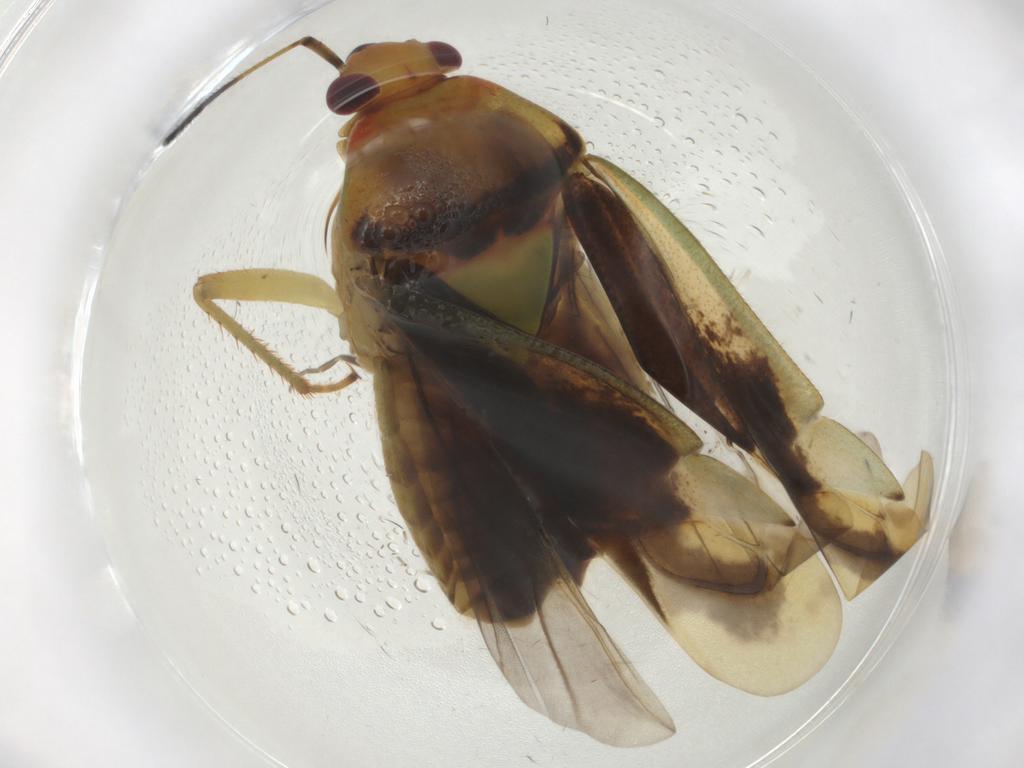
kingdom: Animalia
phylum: Arthropoda
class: Insecta
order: Hemiptera
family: Miridae
